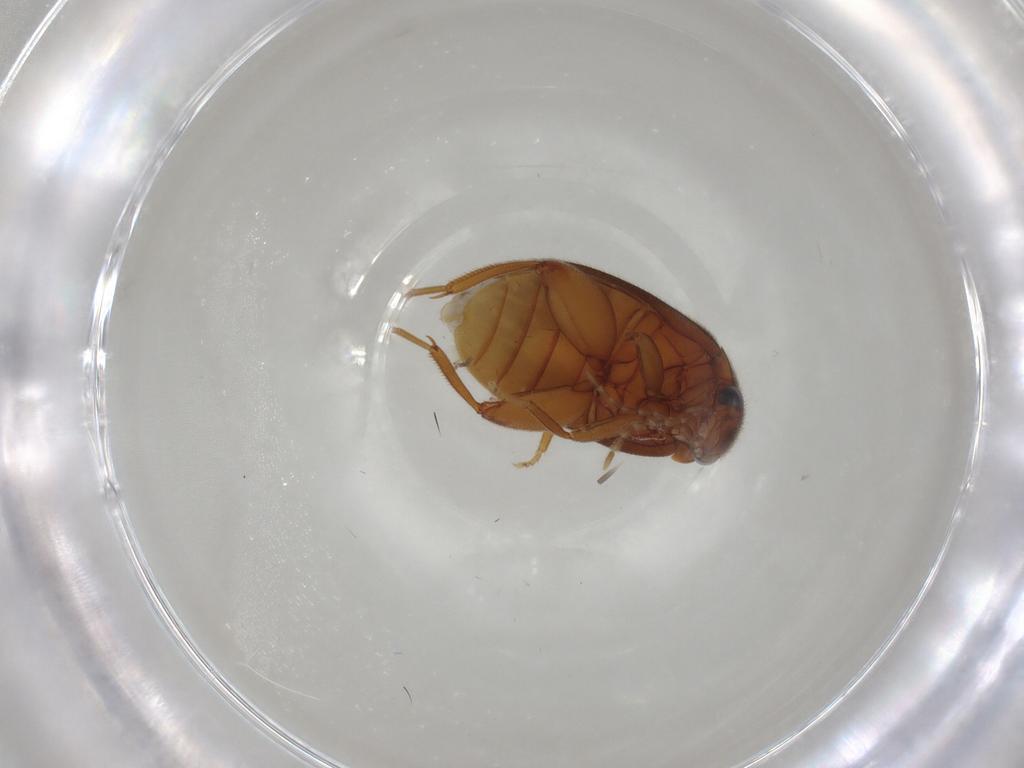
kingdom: Animalia
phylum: Arthropoda
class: Insecta
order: Coleoptera
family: Scirtidae
